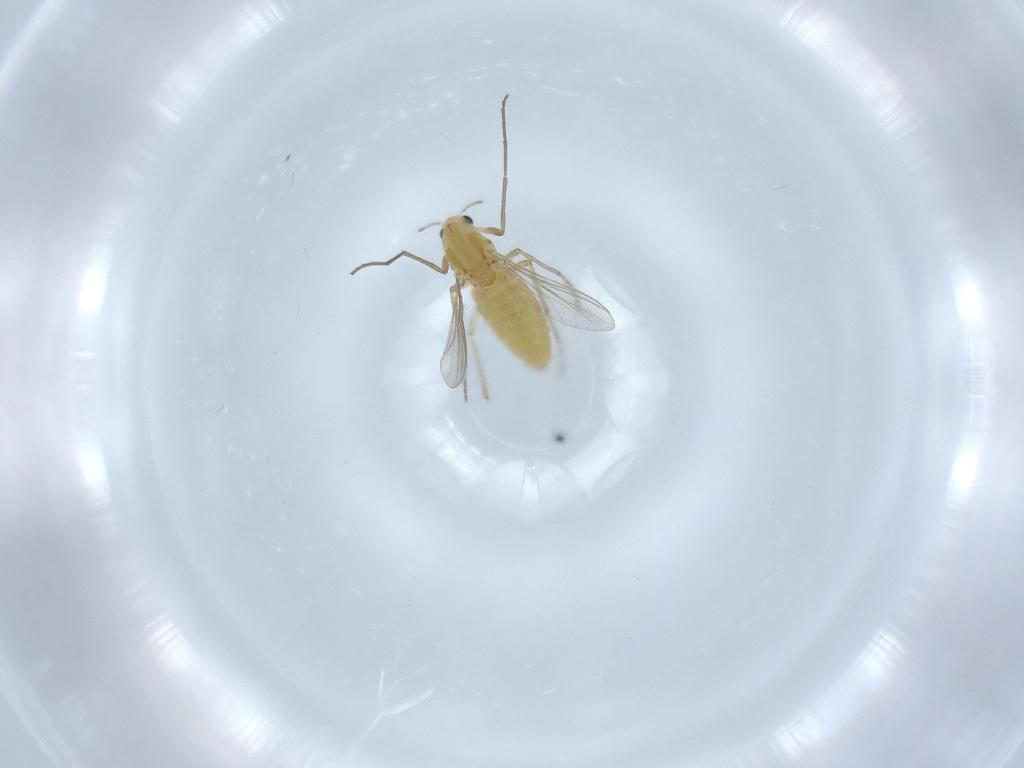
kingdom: Animalia
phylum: Arthropoda
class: Insecta
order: Diptera
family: Chironomidae
